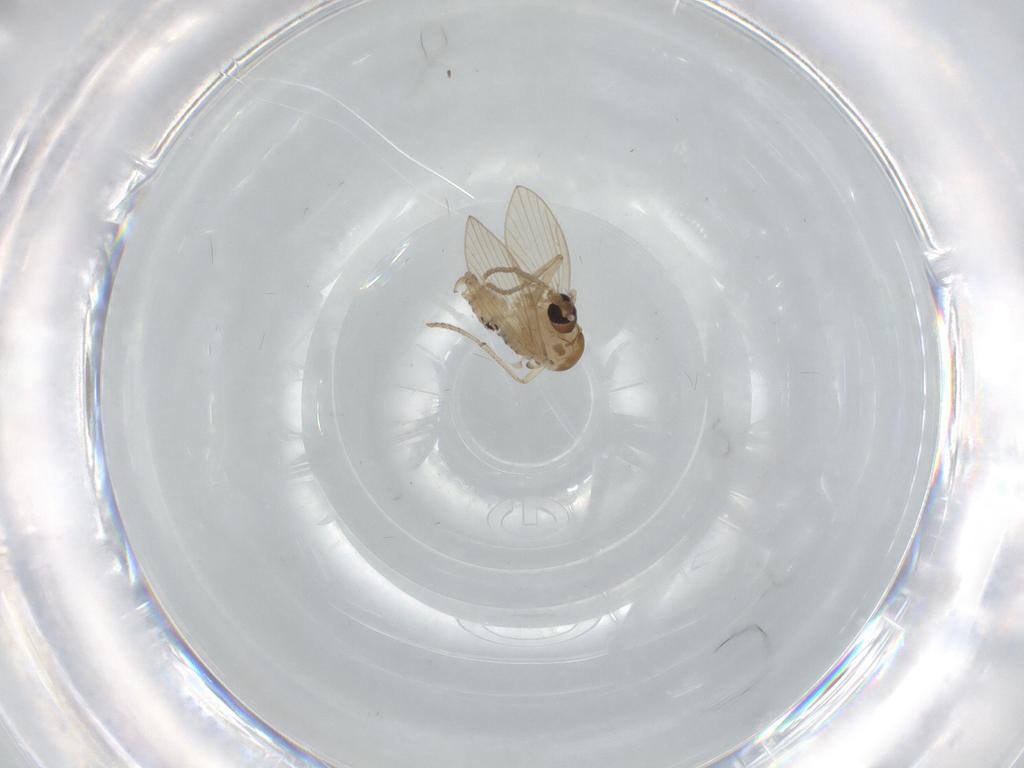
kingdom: Animalia
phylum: Arthropoda
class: Insecta
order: Diptera
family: Psychodidae
